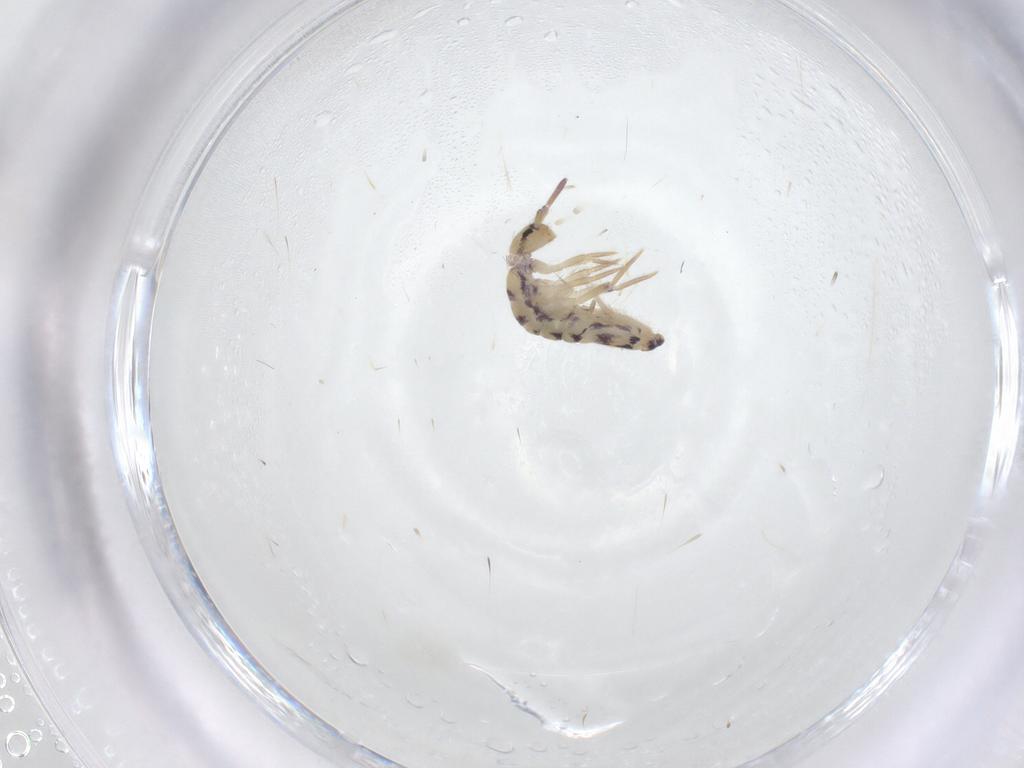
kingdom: Animalia
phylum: Arthropoda
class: Collembola
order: Entomobryomorpha
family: Entomobryidae
